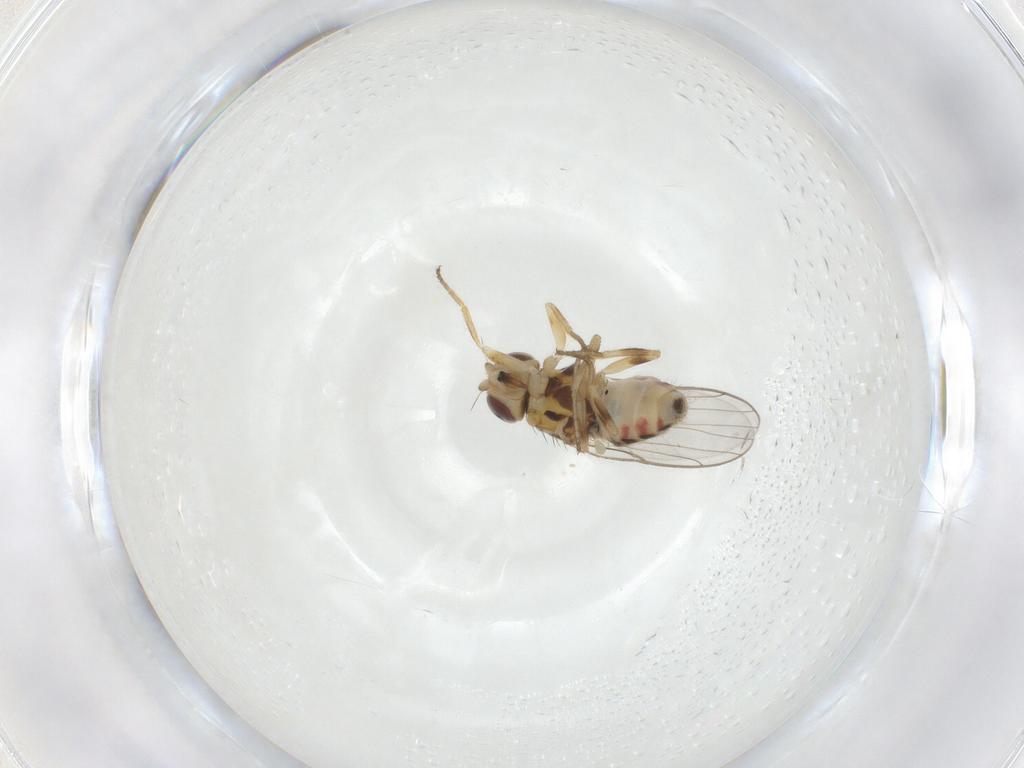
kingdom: Animalia
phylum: Arthropoda
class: Insecta
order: Diptera
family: Chloropidae
